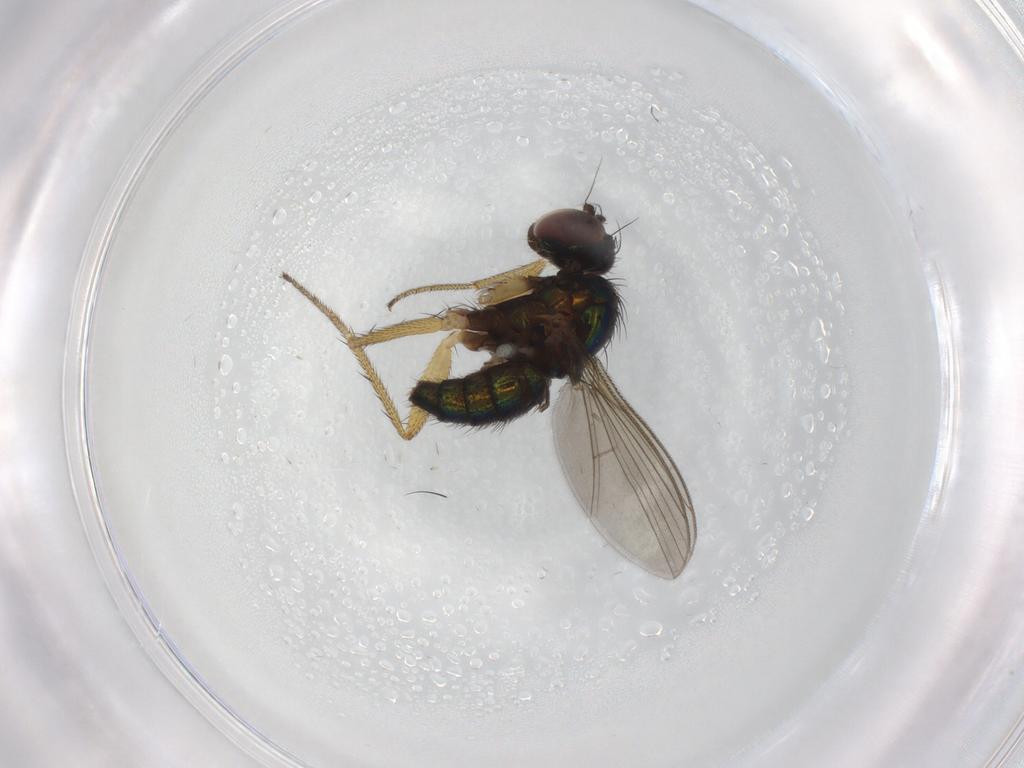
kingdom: Animalia
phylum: Arthropoda
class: Insecta
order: Diptera
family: Dolichopodidae
